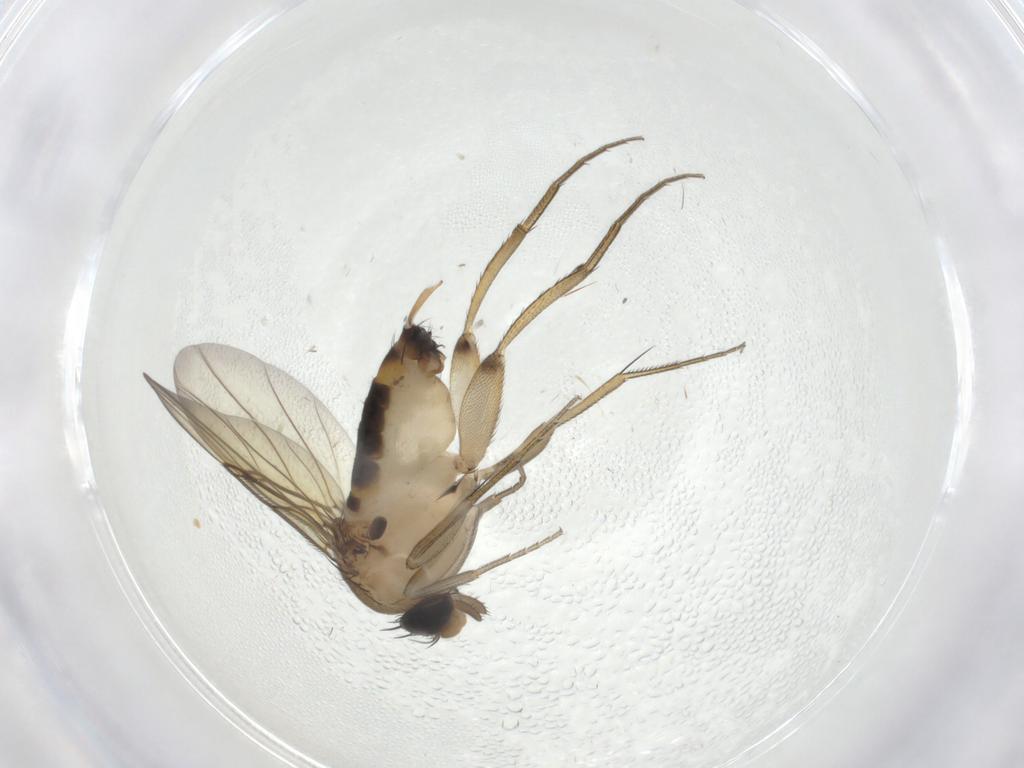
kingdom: Animalia
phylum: Arthropoda
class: Insecta
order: Diptera
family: Phoridae
